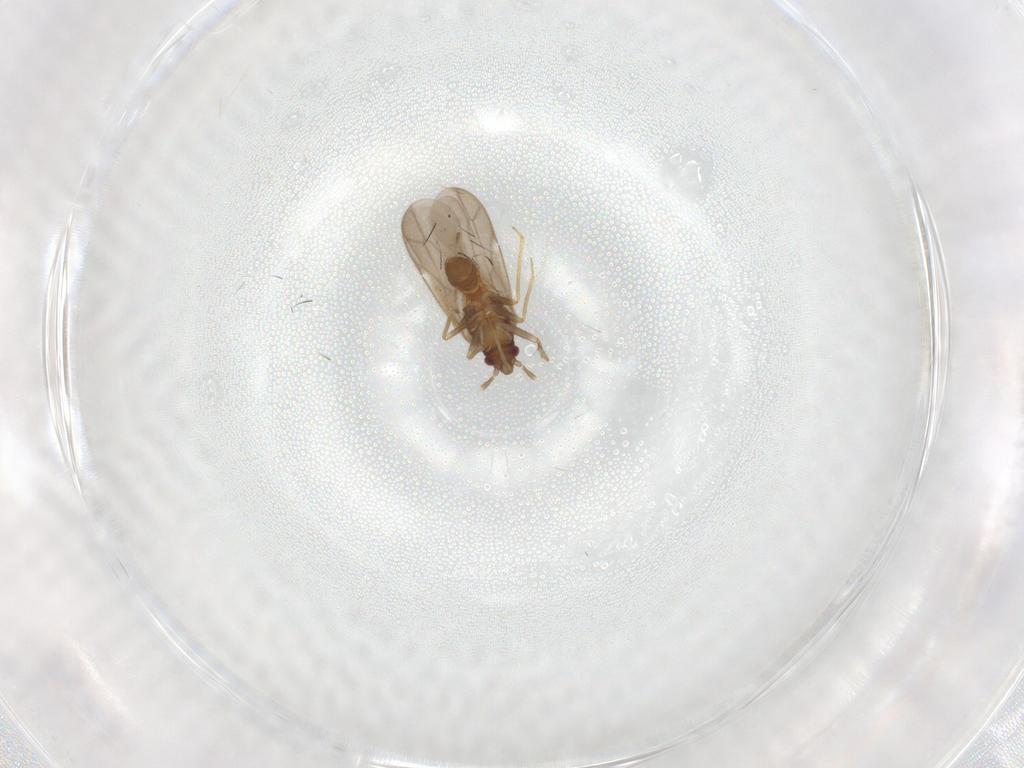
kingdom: Animalia
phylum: Arthropoda
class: Insecta
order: Hemiptera
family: Ceratocombidae
